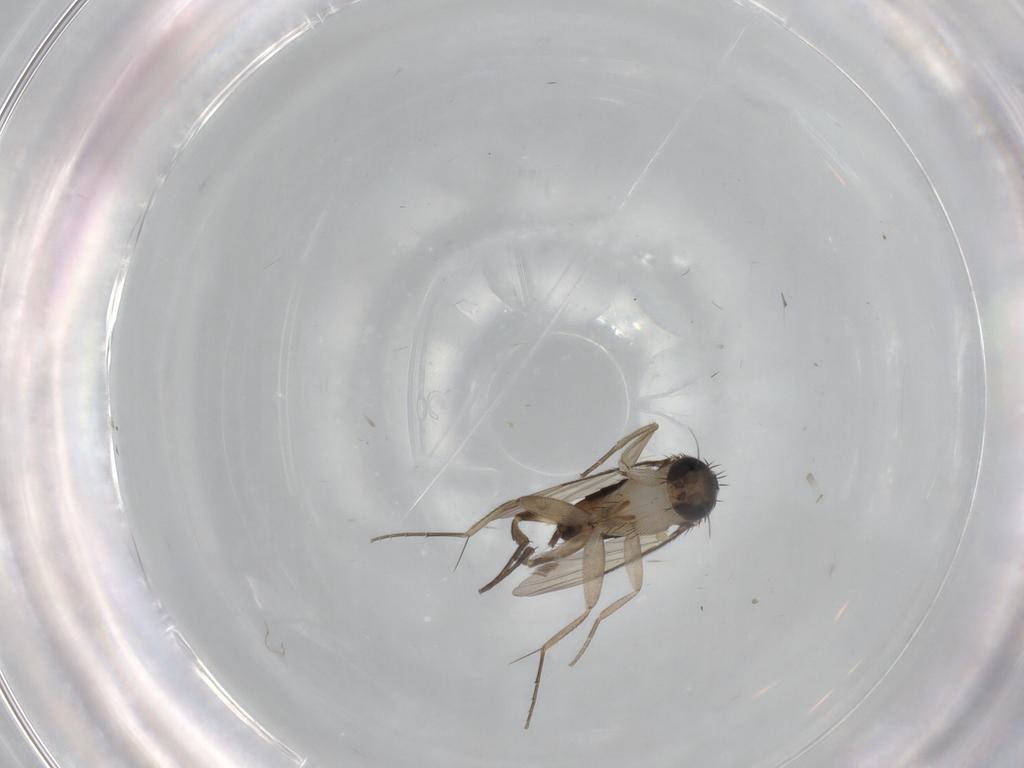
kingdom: Animalia
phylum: Arthropoda
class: Insecta
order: Diptera
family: Phoridae
